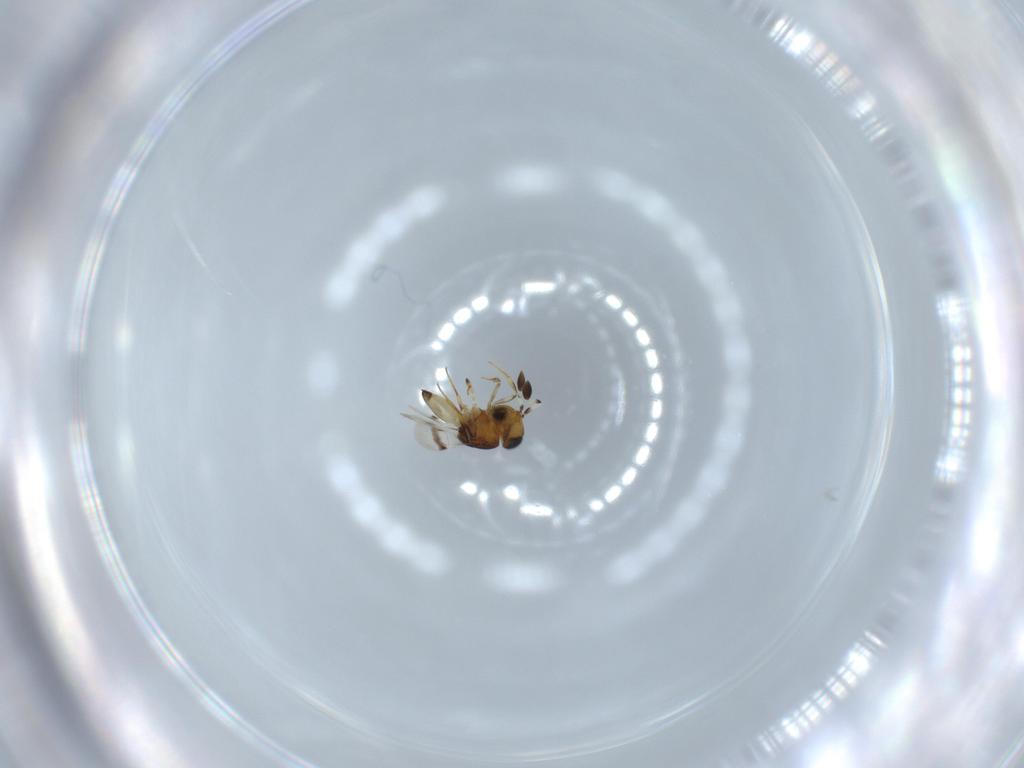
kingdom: Animalia
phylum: Arthropoda
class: Arachnida
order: Araneae
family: Pholcidae
